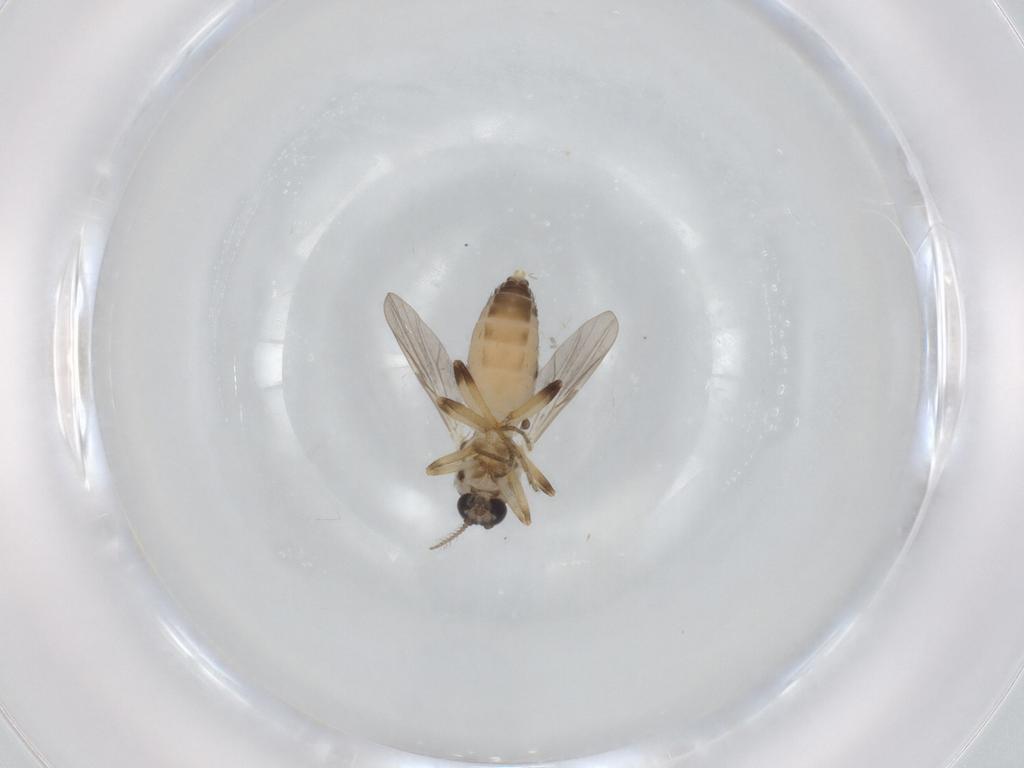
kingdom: Animalia
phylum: Arthropoda
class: Insecta
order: Diptera
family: Ceratopogonidae
